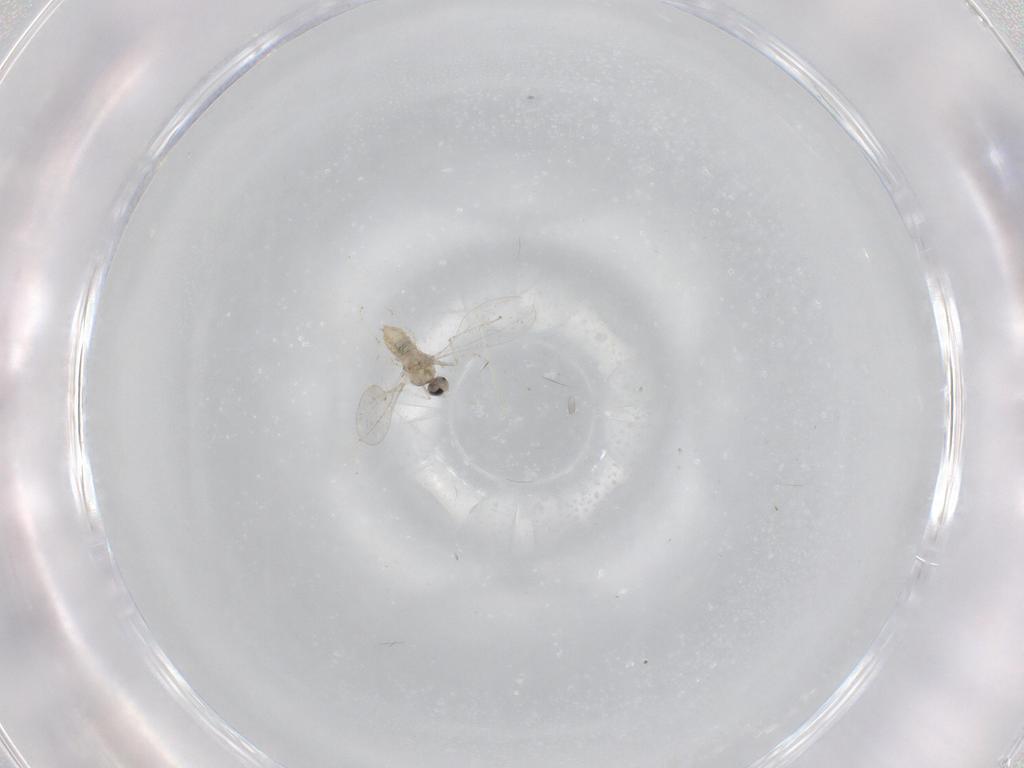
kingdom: Animalia
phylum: Arthropoda
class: Insecta
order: Diptera
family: Cecidomyiidae
